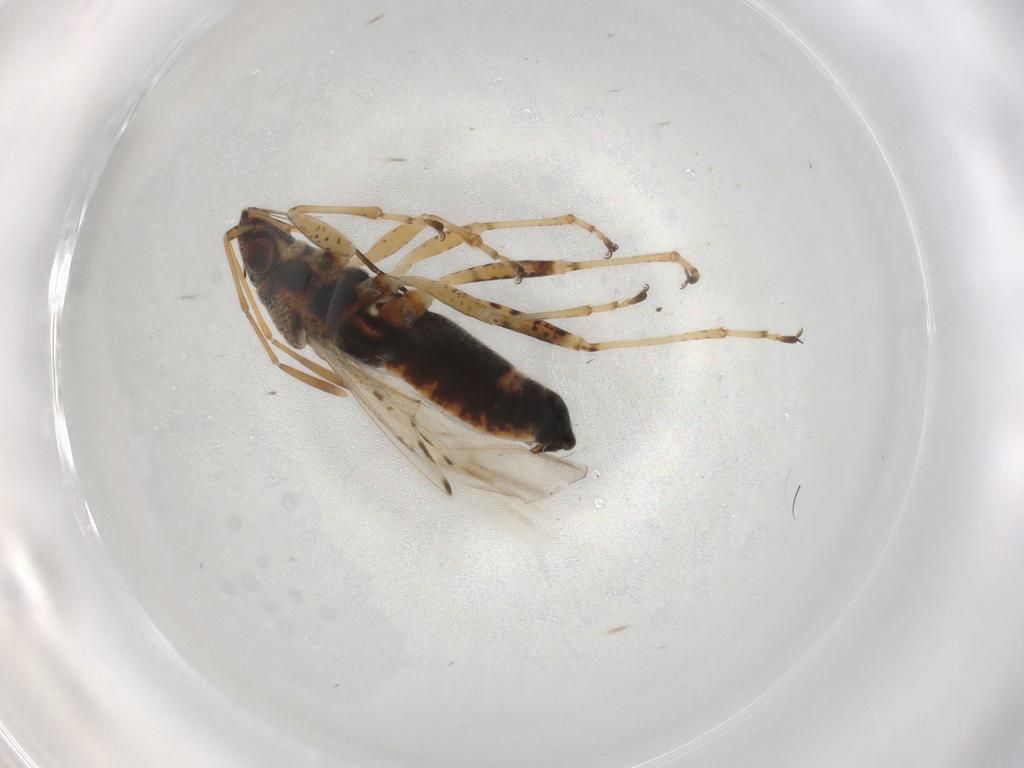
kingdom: Animalia
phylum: Arthropoda
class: Insecta
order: Hemiptera
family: Lygaeidae
